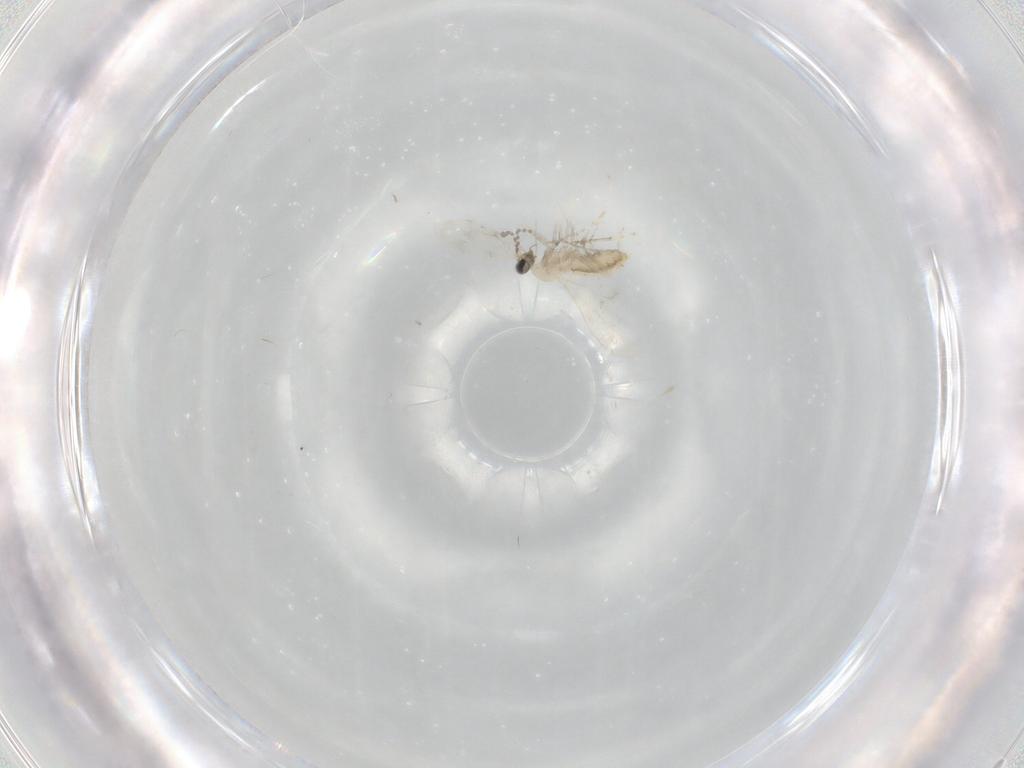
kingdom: Animalia
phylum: Arthropoda
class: Insecta
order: Diptera
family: Cecidomyiidae
